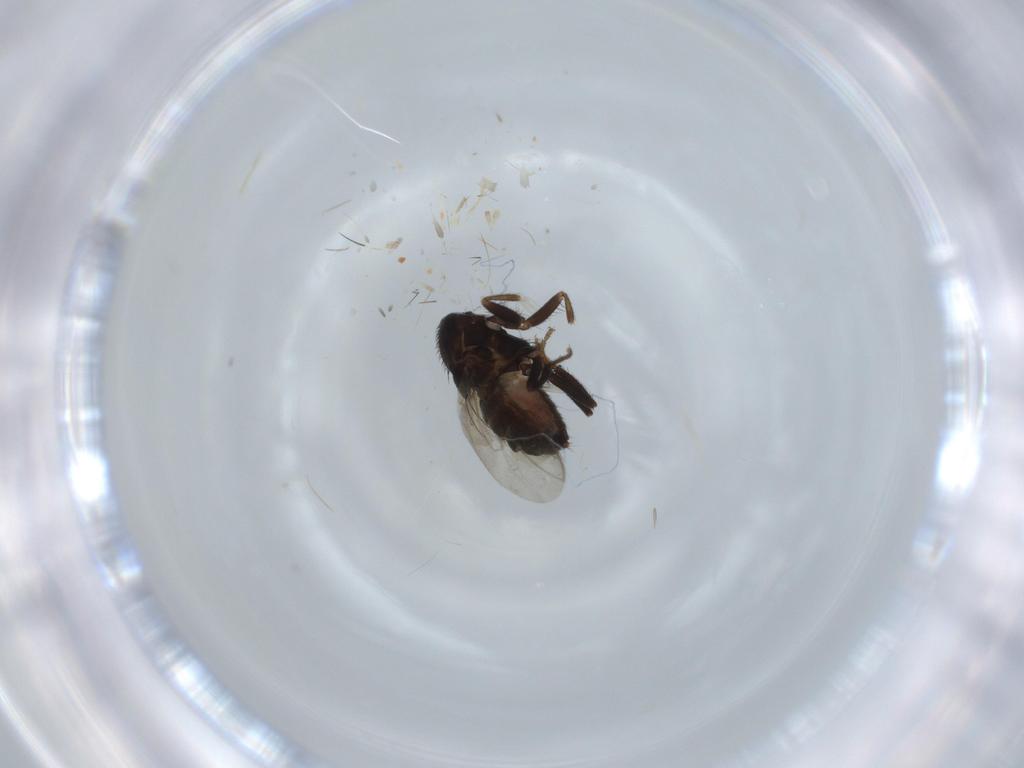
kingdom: Animalia
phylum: Arthropoda
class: Insecta
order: Diptera
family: Sphaeroceridae
